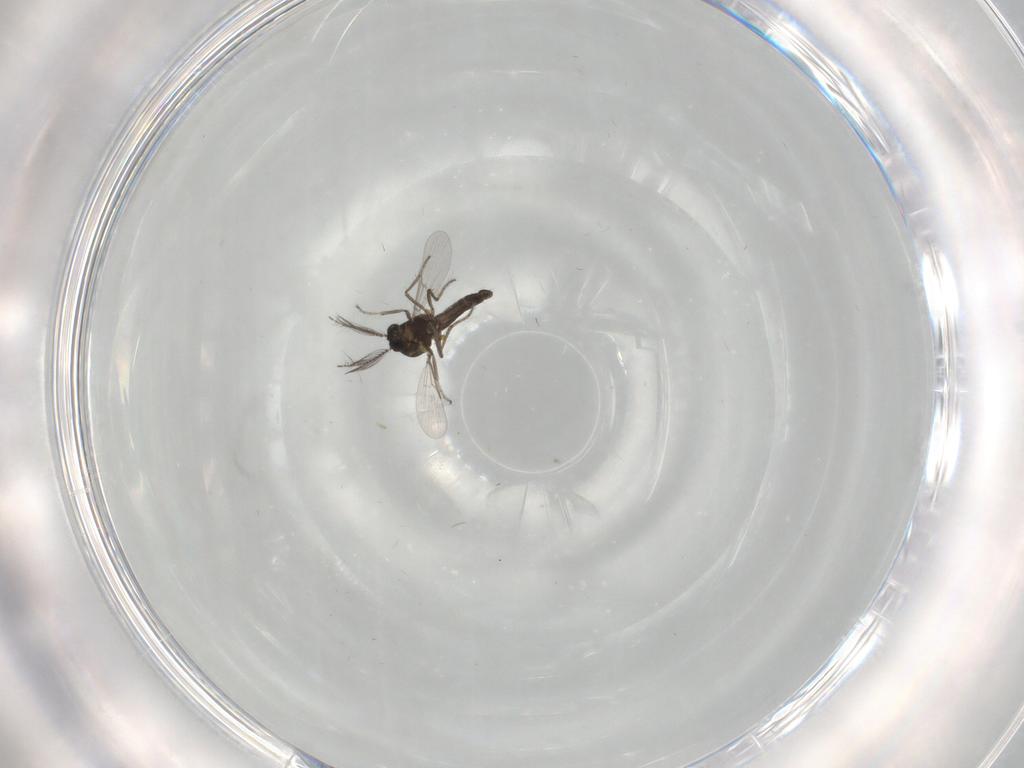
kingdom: Animalia
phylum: Arthropoda
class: Insecta
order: Diptera
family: Ceratopogonidae
